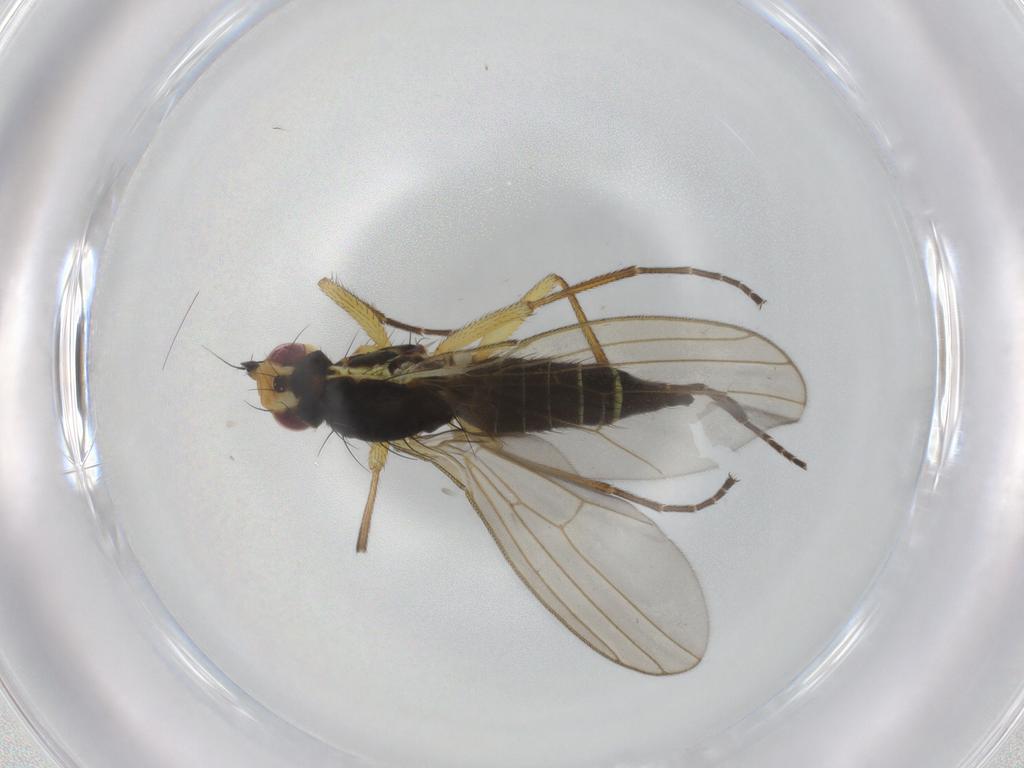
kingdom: Animalia
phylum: Arthropoda
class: Insecta
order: Diptera
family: Agromyzidae
